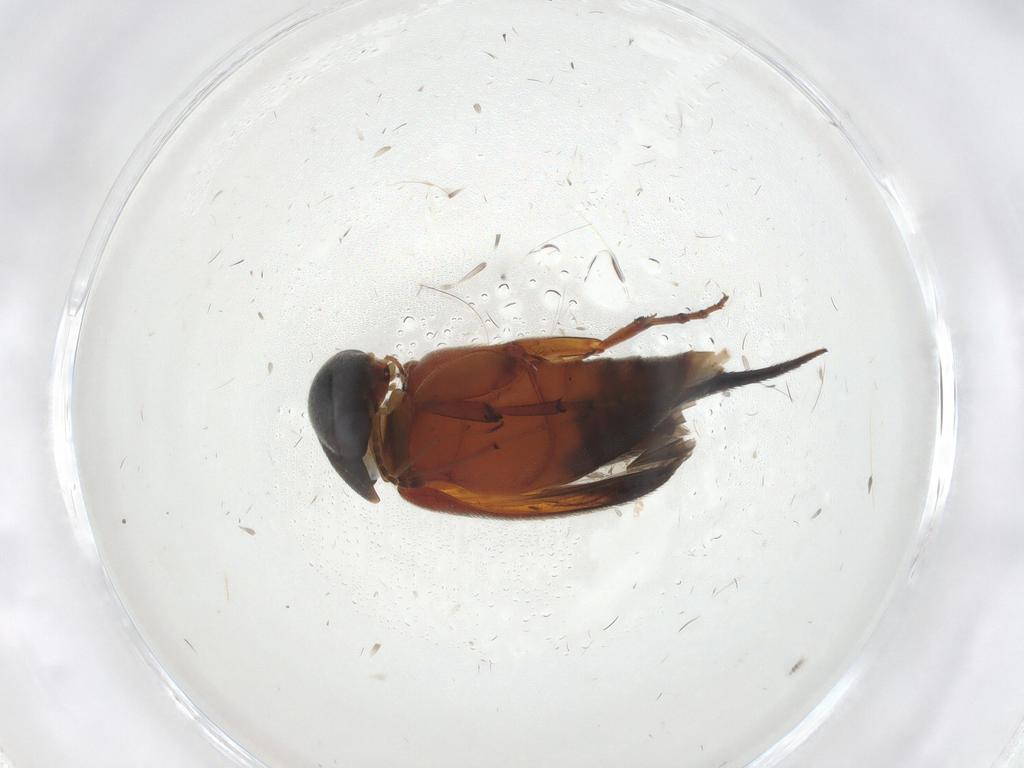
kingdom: Animalia
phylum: Arthropoda
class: Insecta
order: Coleoptera
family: Mordellidae
